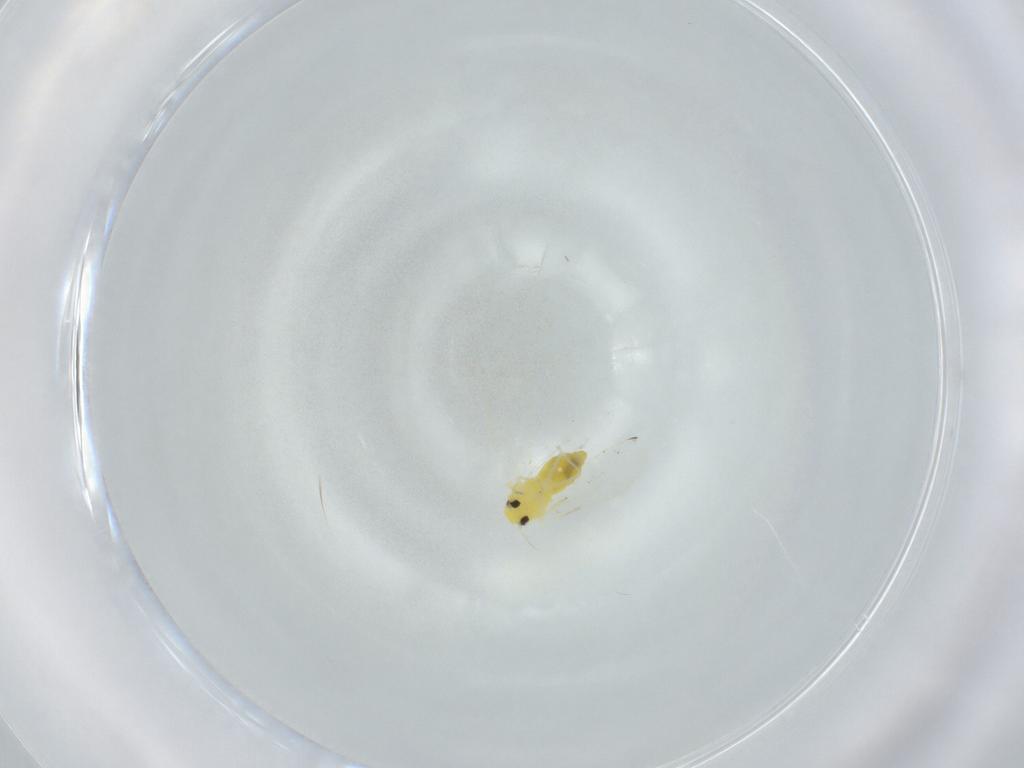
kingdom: Animalia
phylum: Arthropoda
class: Insecta
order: Hemiptera
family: Aleyrodidae
